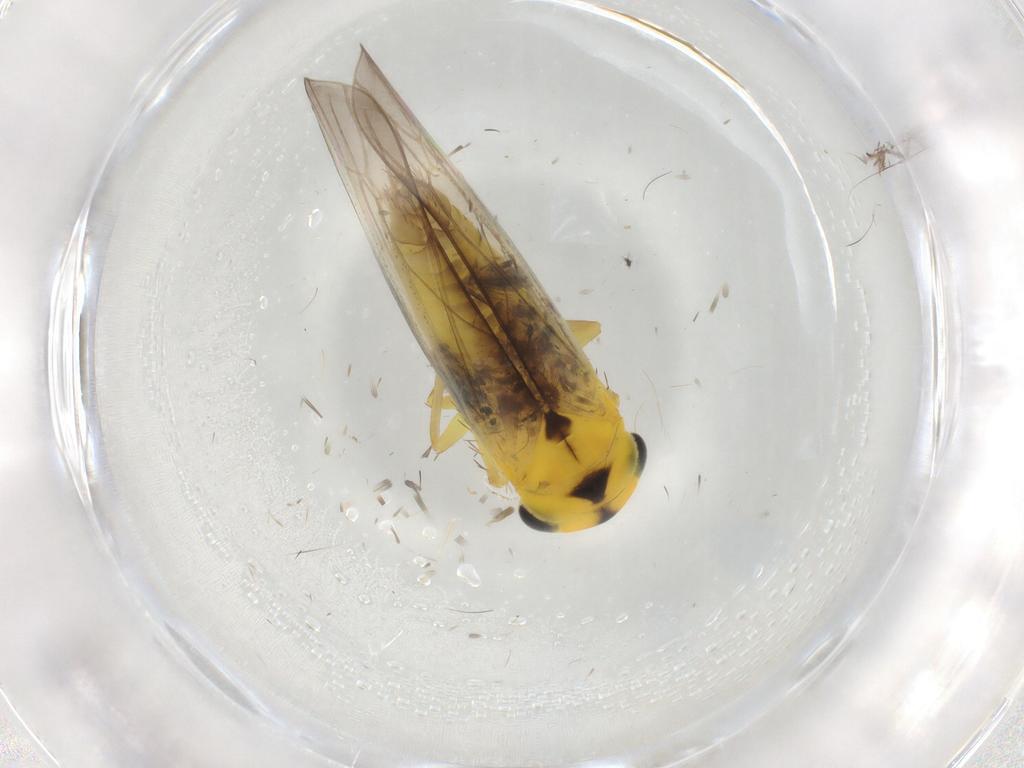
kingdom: Animalia
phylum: Arthropoda
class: Insecta
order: Hemiptera
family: Cicadellidae
